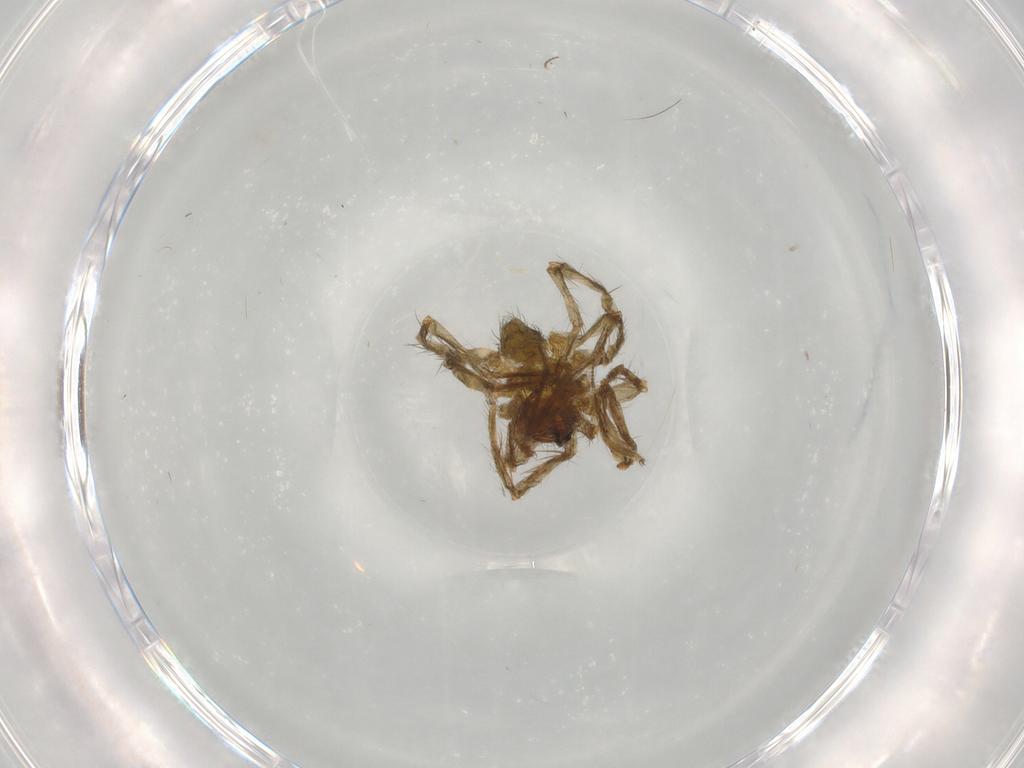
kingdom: Animalia
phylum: Arthropoda
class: Arachnida
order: Araneae
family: Ctenidae
